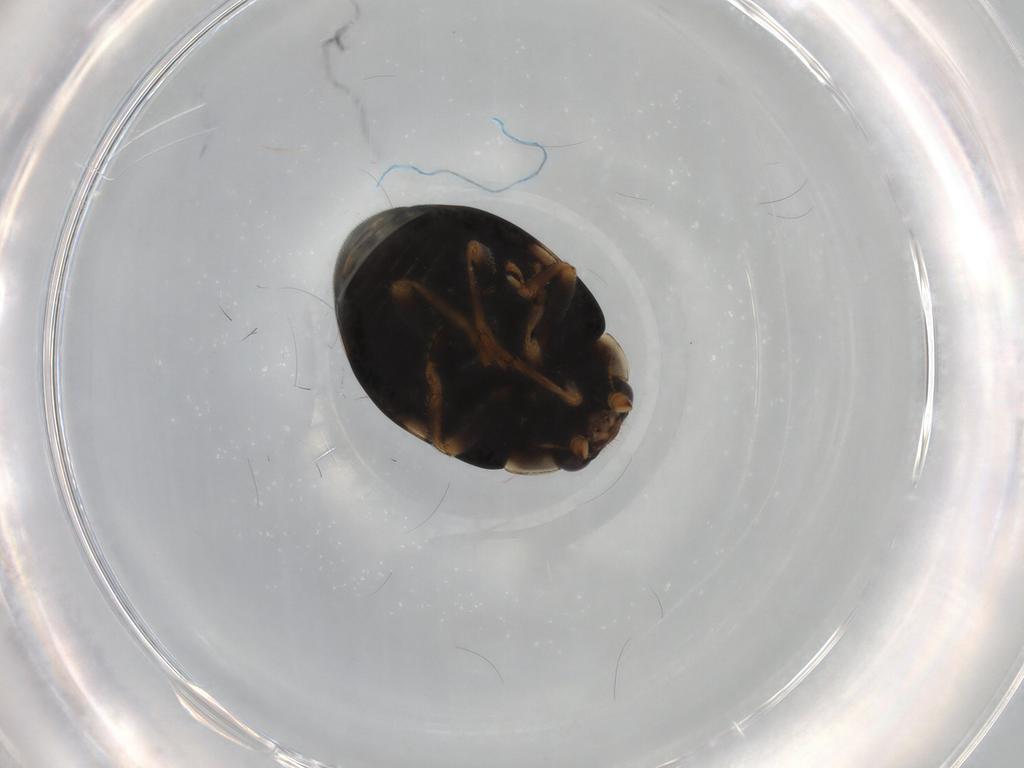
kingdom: Animalia
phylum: Arthropoda
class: Insecta
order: Coleoptera
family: Coccinellidae
